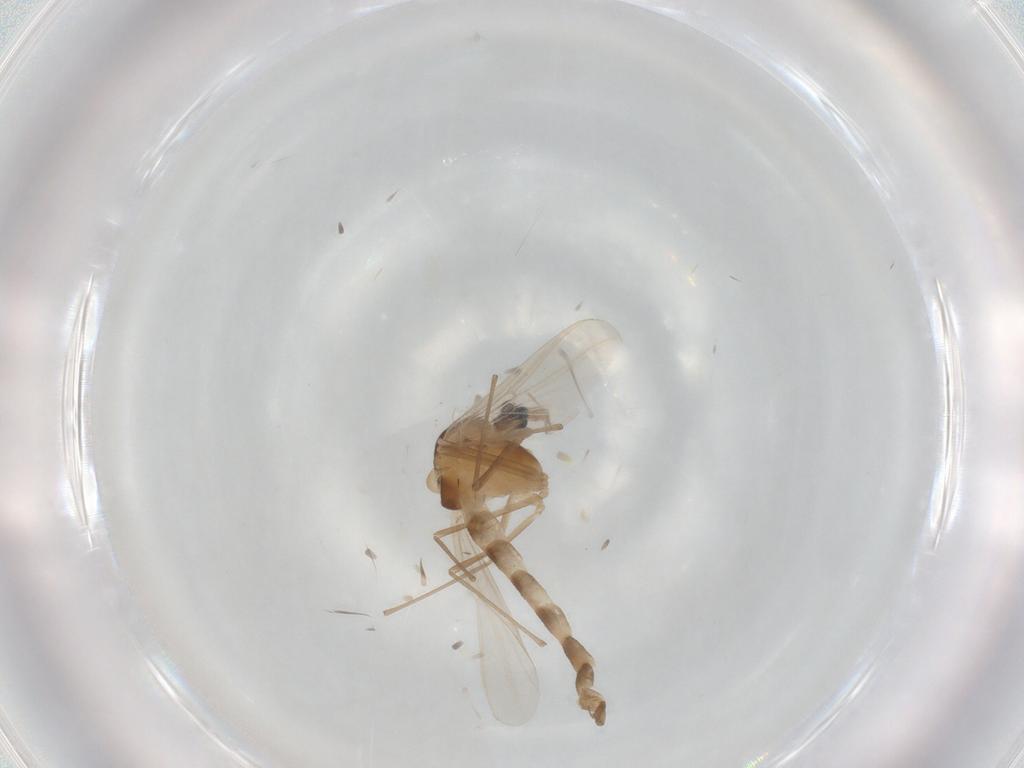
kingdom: Animalia
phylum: Arthropoda
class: Insecta
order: Diptera
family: Chironomidae
